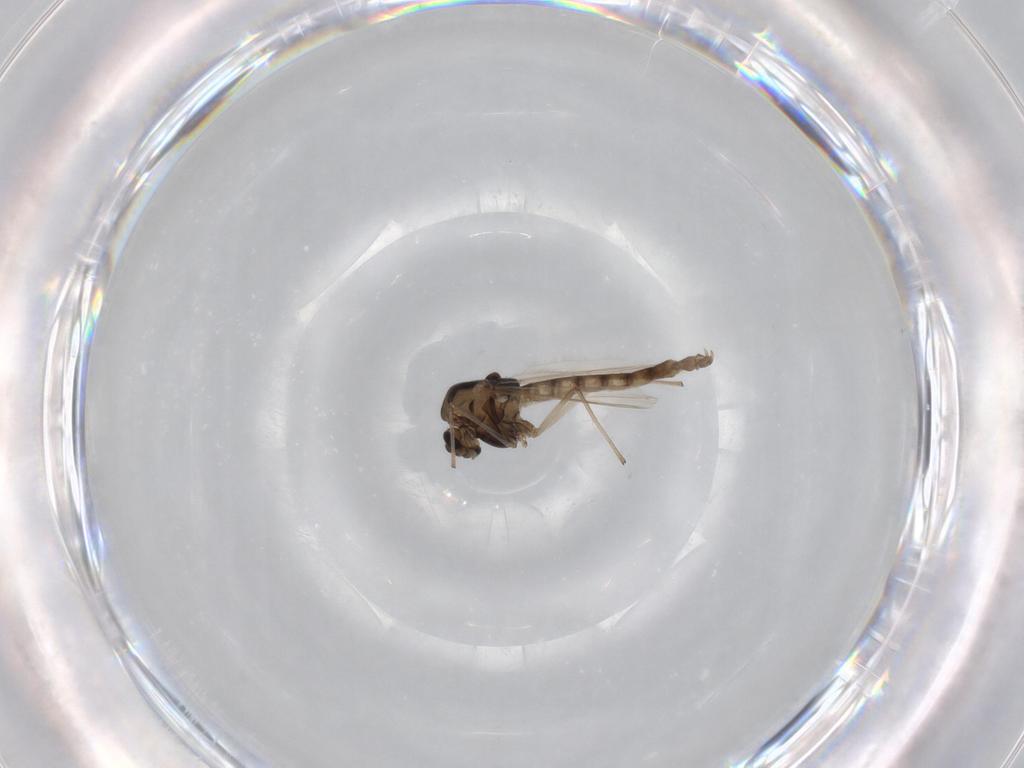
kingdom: Animalia
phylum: Arthropoda
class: Insecta
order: Diptera
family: Chironomidae
